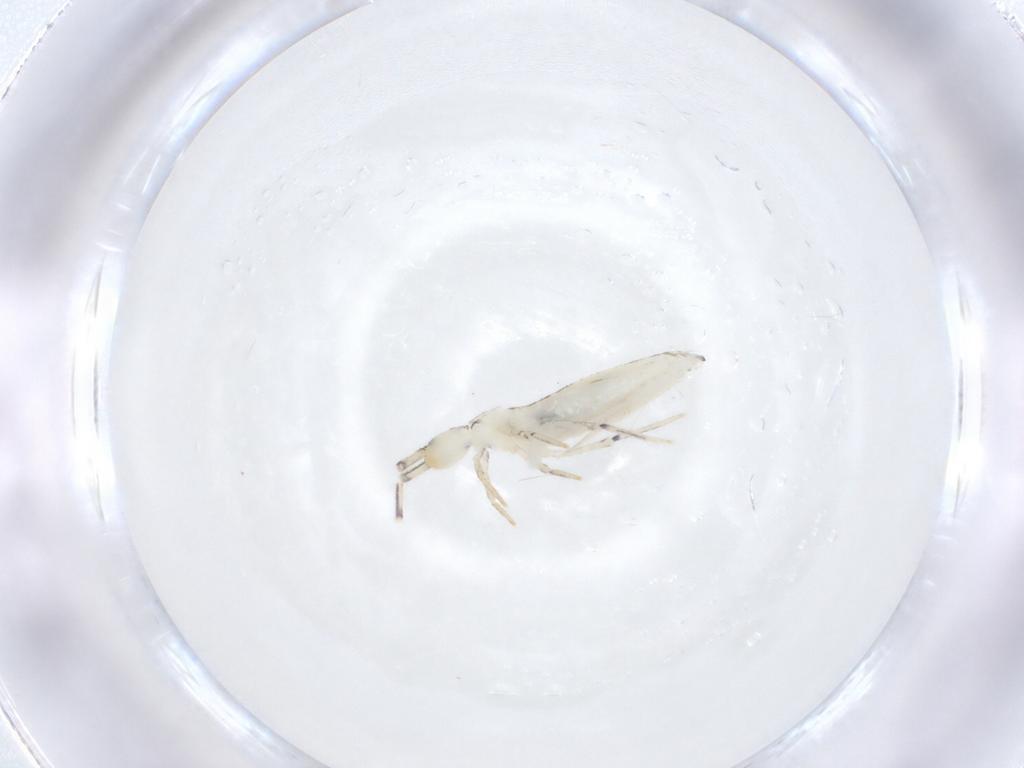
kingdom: Animalia
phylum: Arthropoda
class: Collembola
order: Entomobryomorpha
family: Entomobryidae
